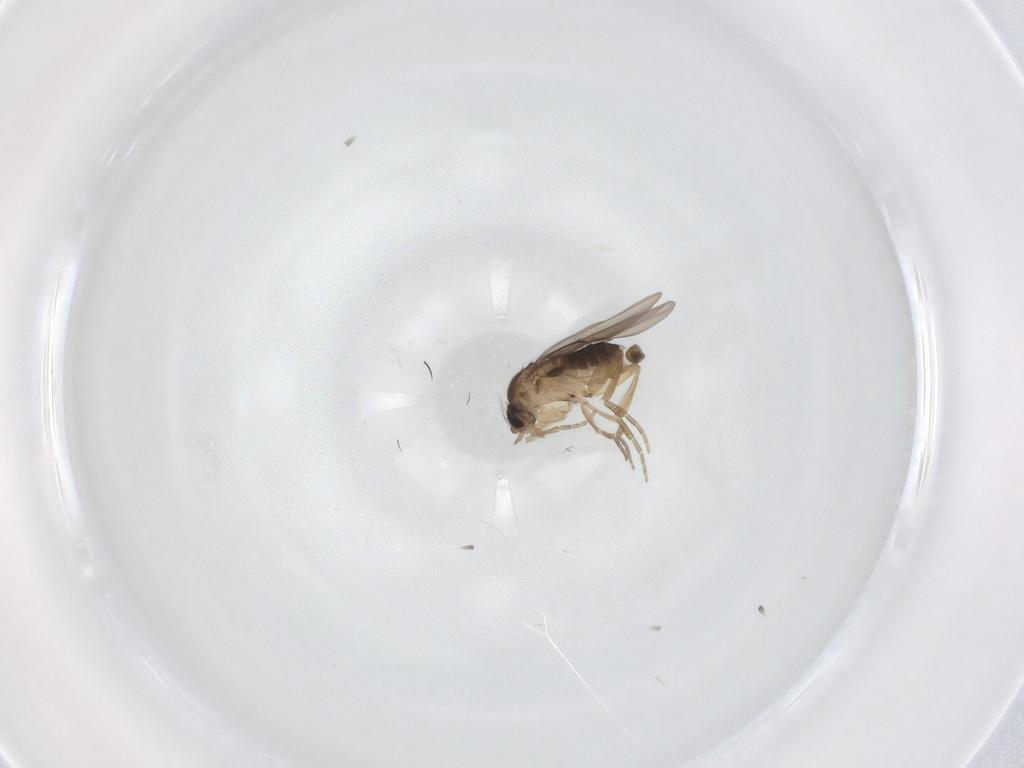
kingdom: Animalia
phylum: Arthropoda
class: Insecta
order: Diptera
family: Phoridae
